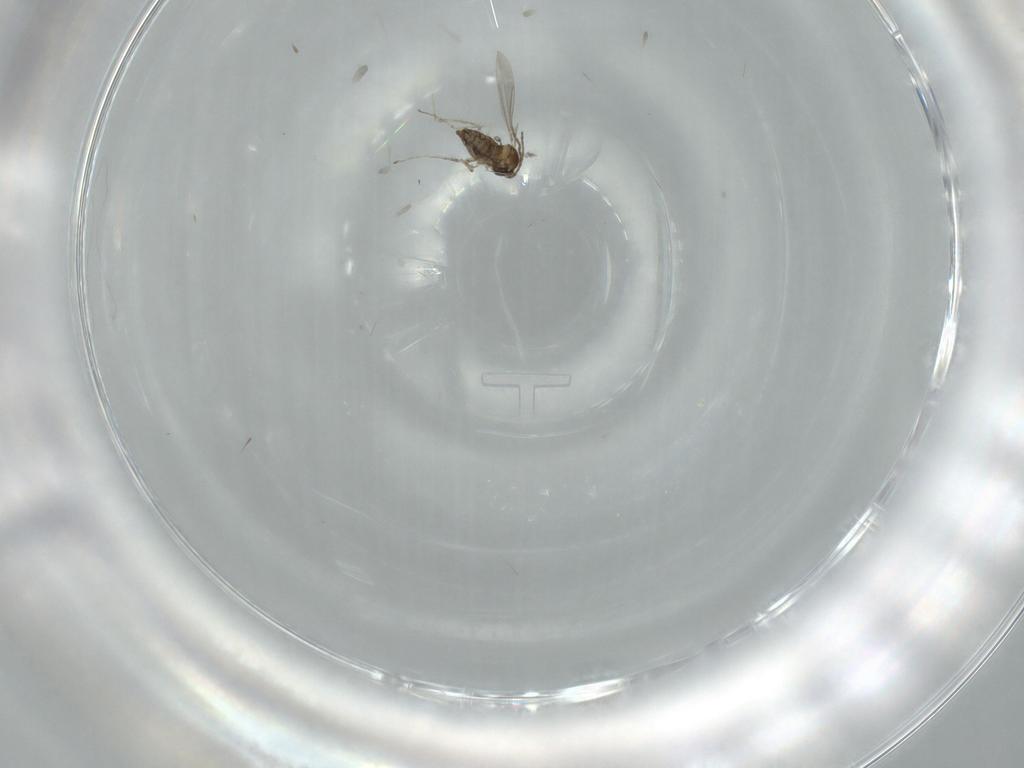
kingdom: Animalia
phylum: Arthropoda
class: Insecta
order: Diptera
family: Cecidomyiidae
